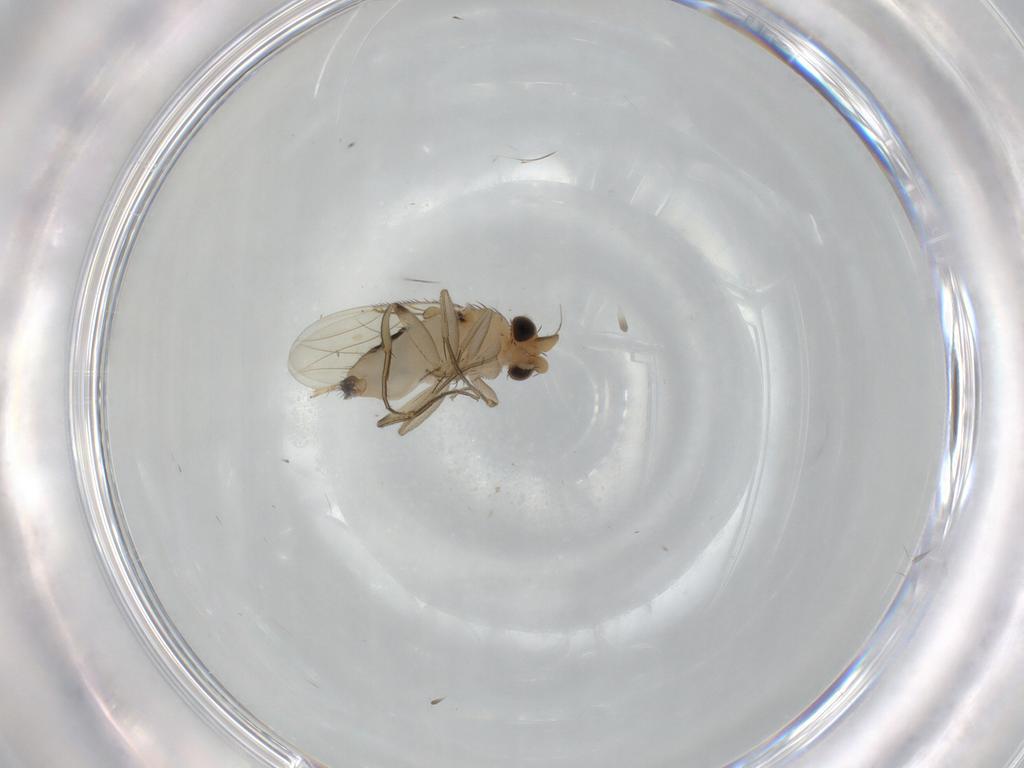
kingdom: Animalia
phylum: Arthropoda
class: Insecta
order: Diptera
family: Phoridae
